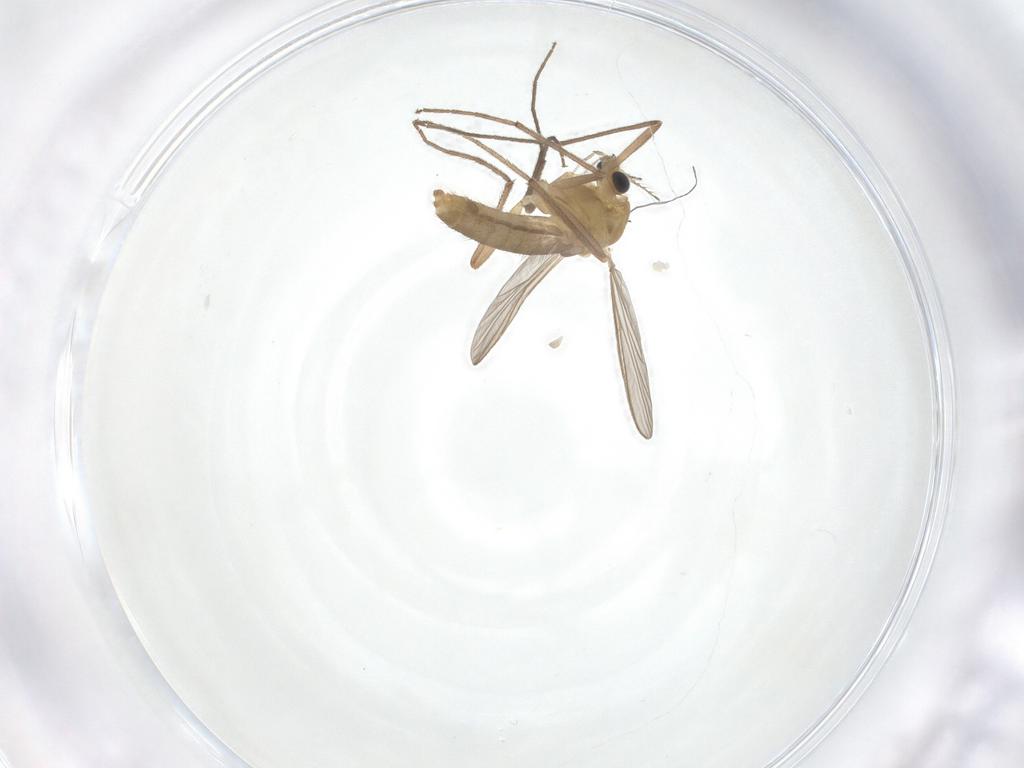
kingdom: Animalia
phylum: Arthropoda
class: Insecta
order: Diptera
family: Chironomidae
